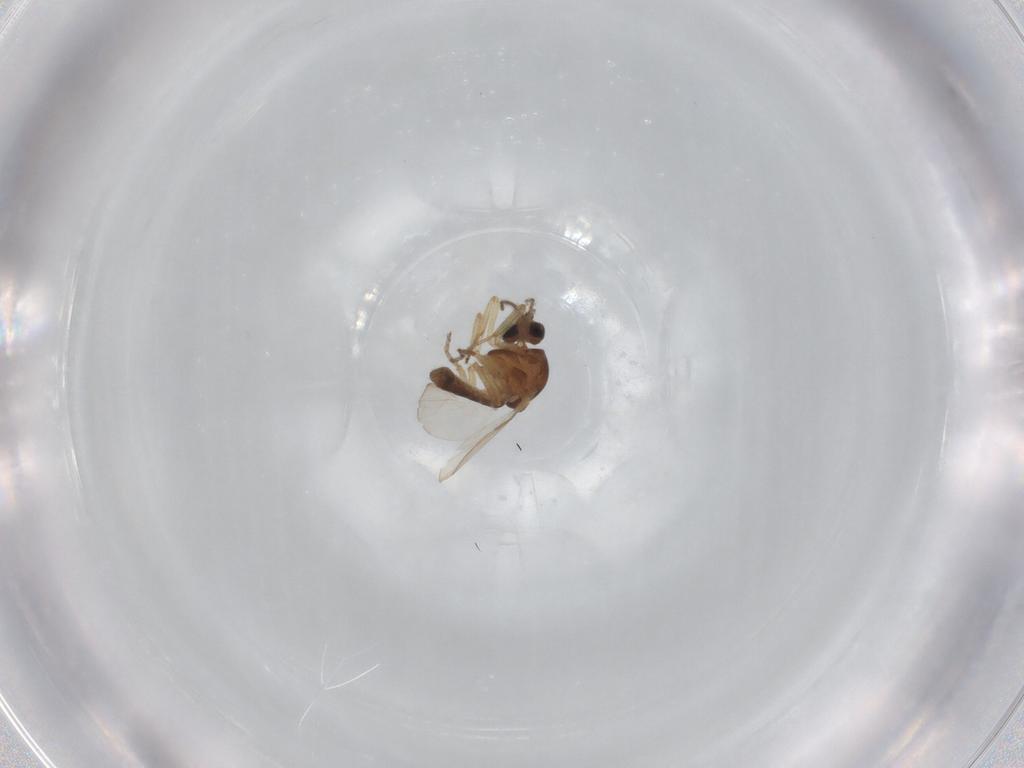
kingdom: Animalia
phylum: Arthropoda
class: Insecta
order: Diptera
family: Ceratopogonidae
